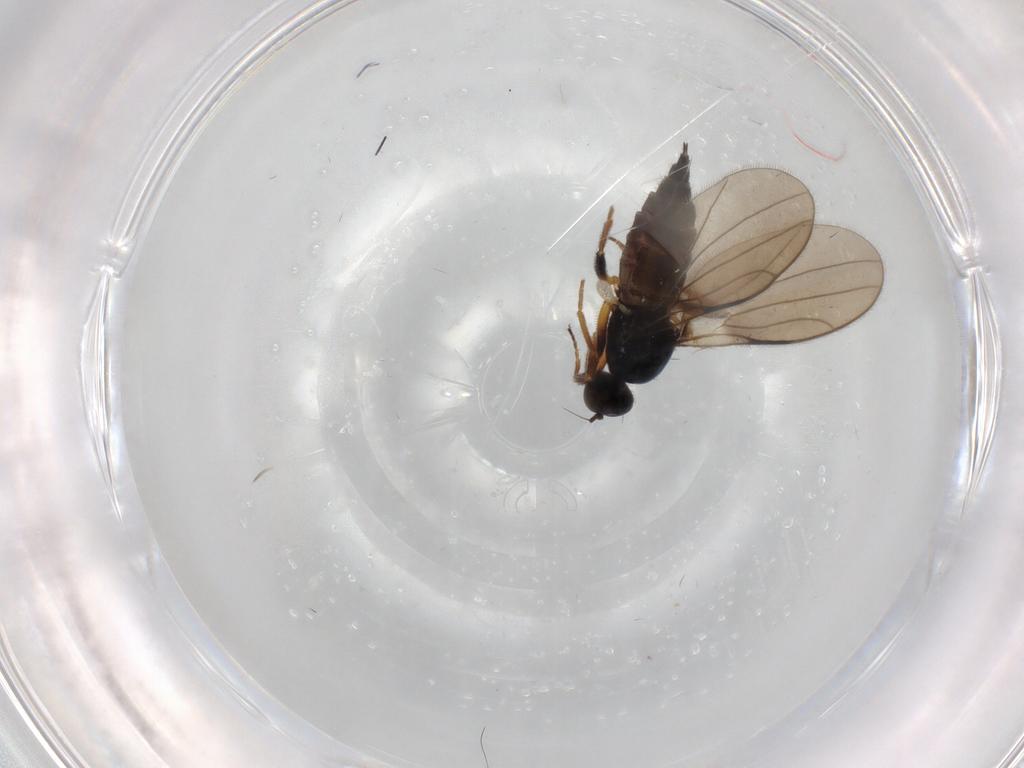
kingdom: Animalia
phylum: Arthropoda
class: Insecta
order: Diptera
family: Hybotidae
